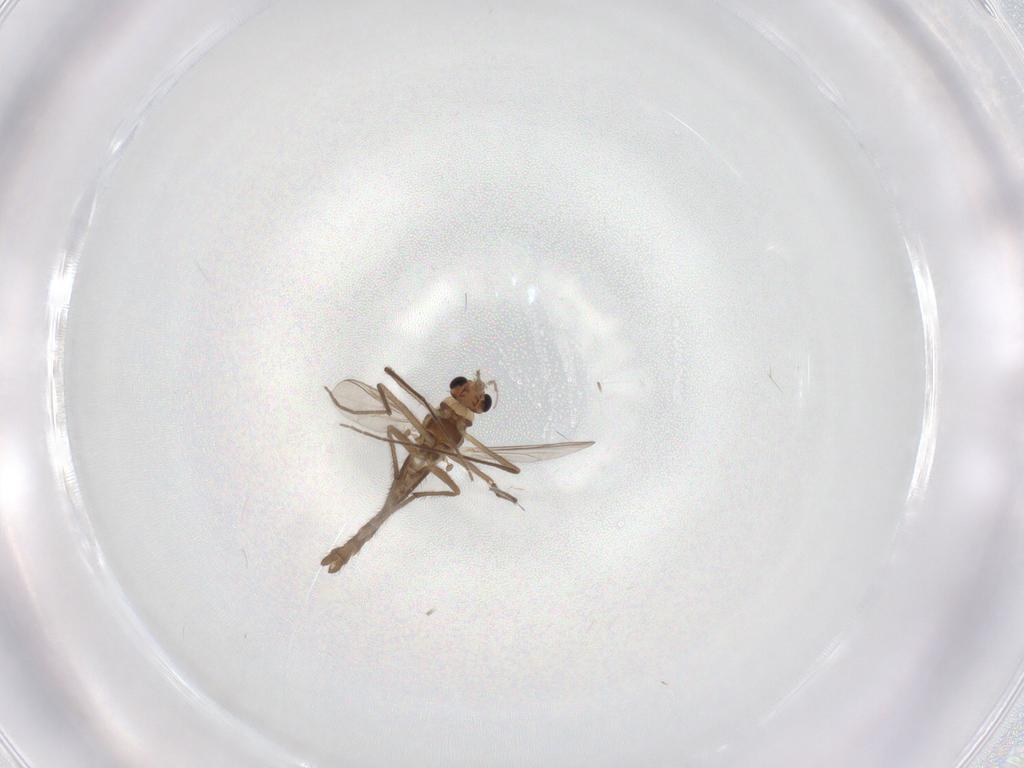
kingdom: Animalia
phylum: Arthropoda
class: Insecta
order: Diptera
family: Chironomidae
